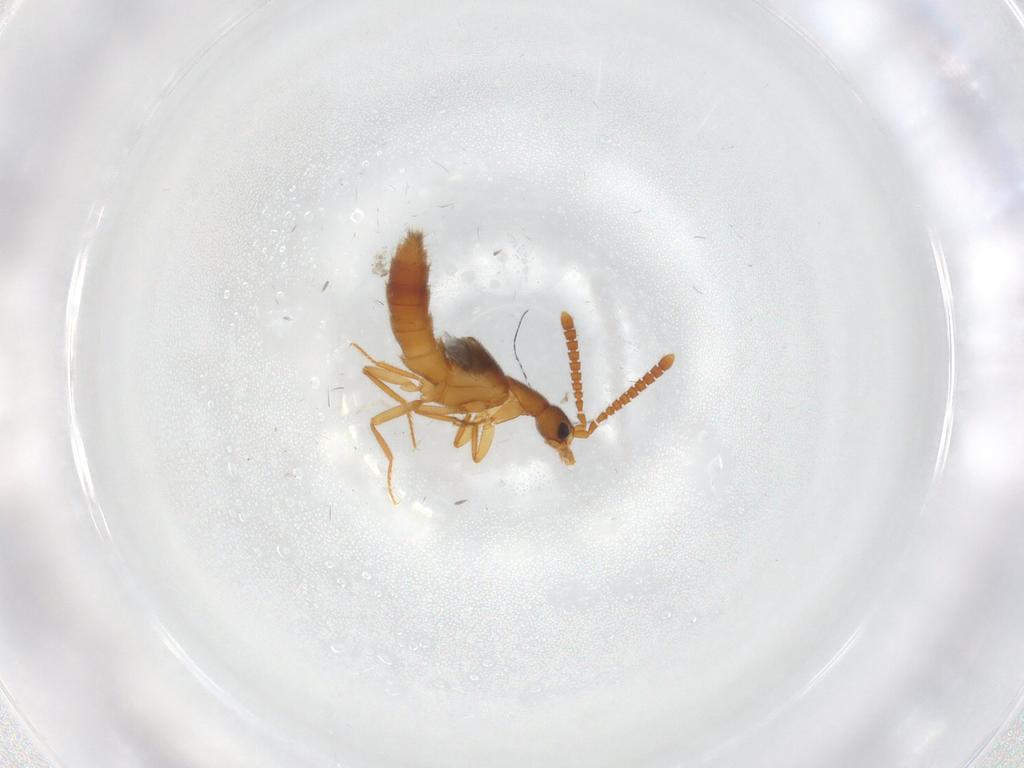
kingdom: Animalia
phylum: Arthropoda
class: Insecta
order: Coleoptera
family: Staphylinidae
